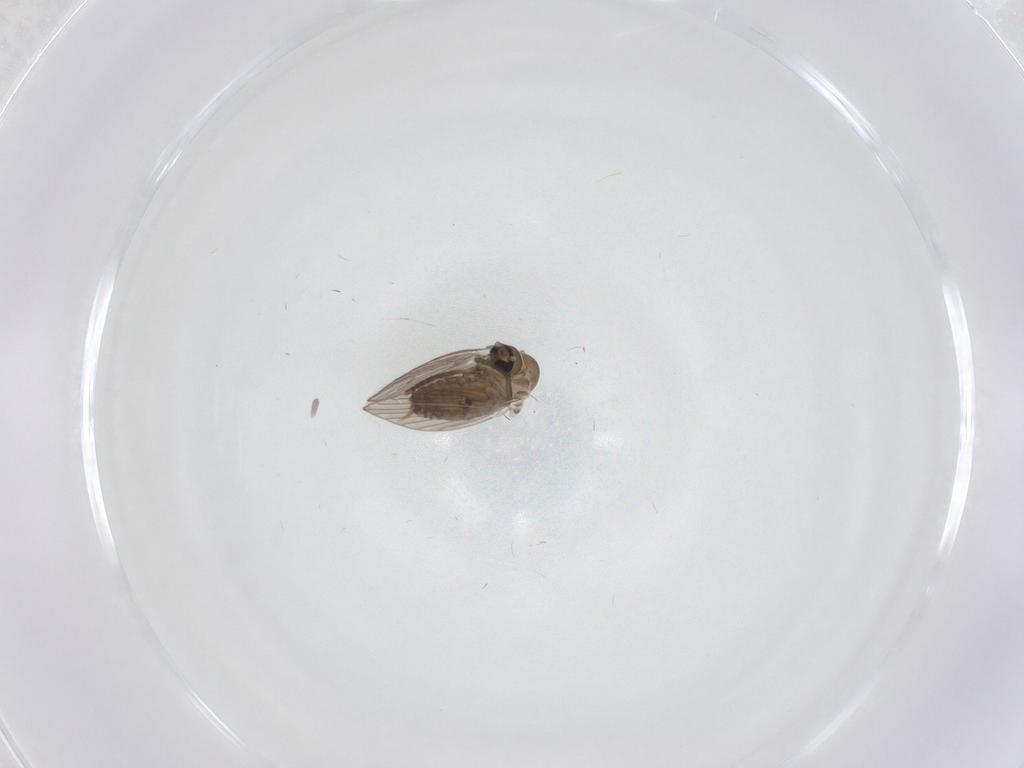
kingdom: Animalia
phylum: Arthropoda
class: Insecta
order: Diptera
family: Psychodidae
